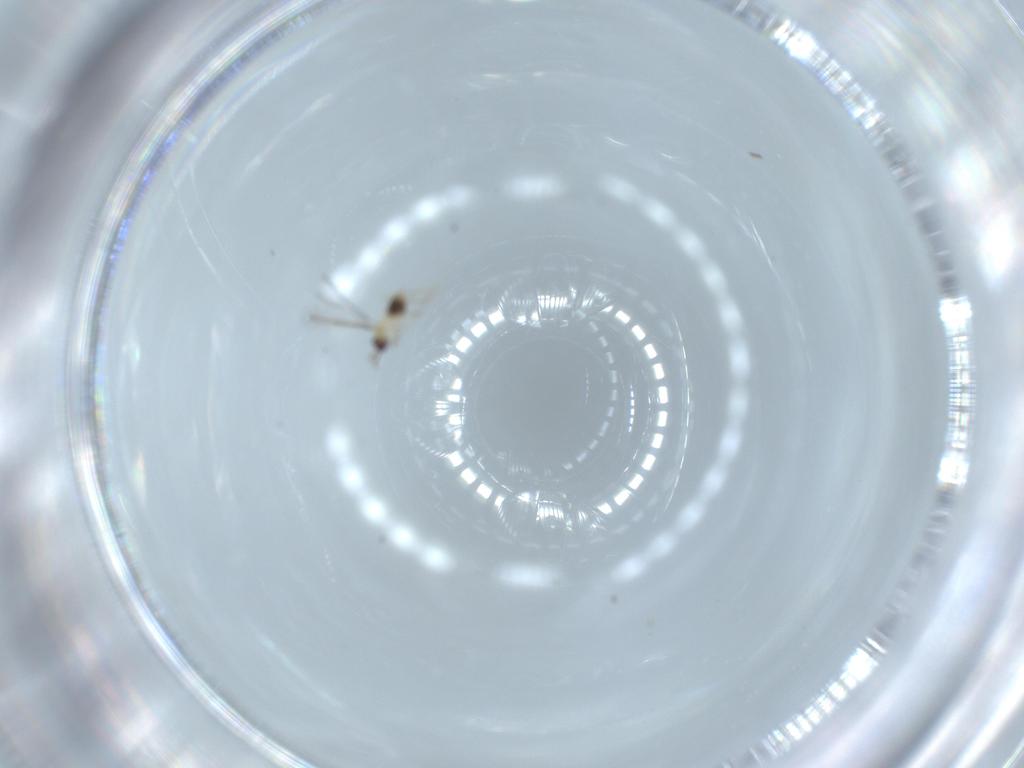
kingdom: Animalia
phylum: Arthropoda
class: Insecta
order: Hymenoptera
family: Mymaridae
